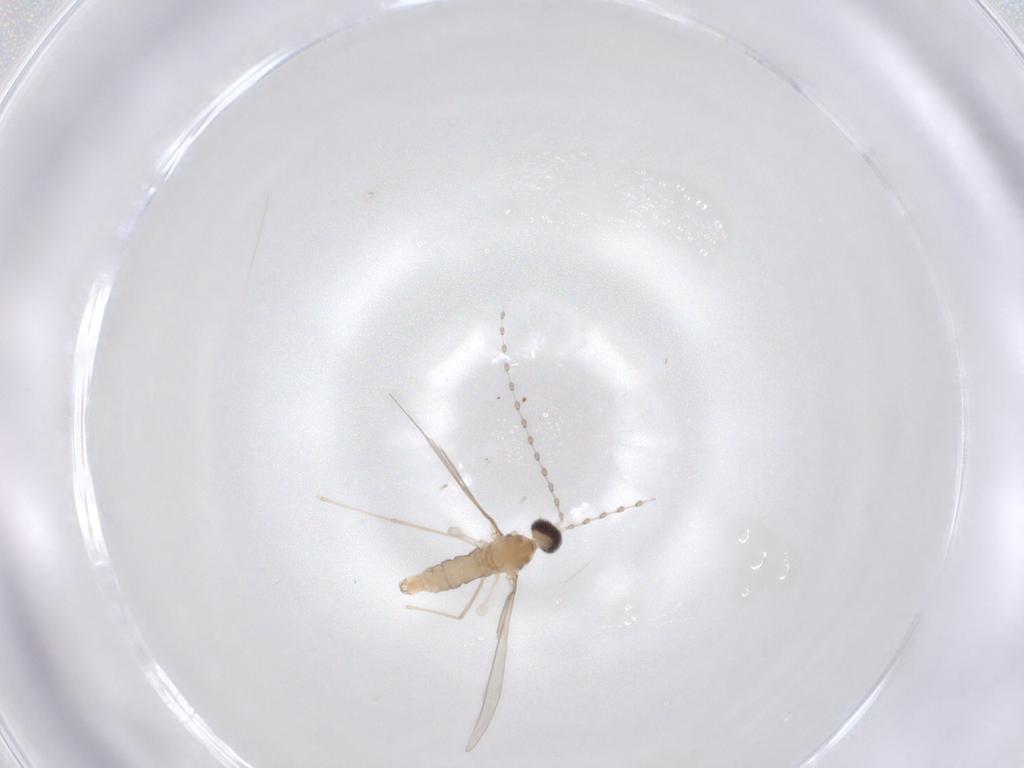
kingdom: Animalia
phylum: Arthropoda
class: Insecta
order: Diptera
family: Cecidomyiidae
